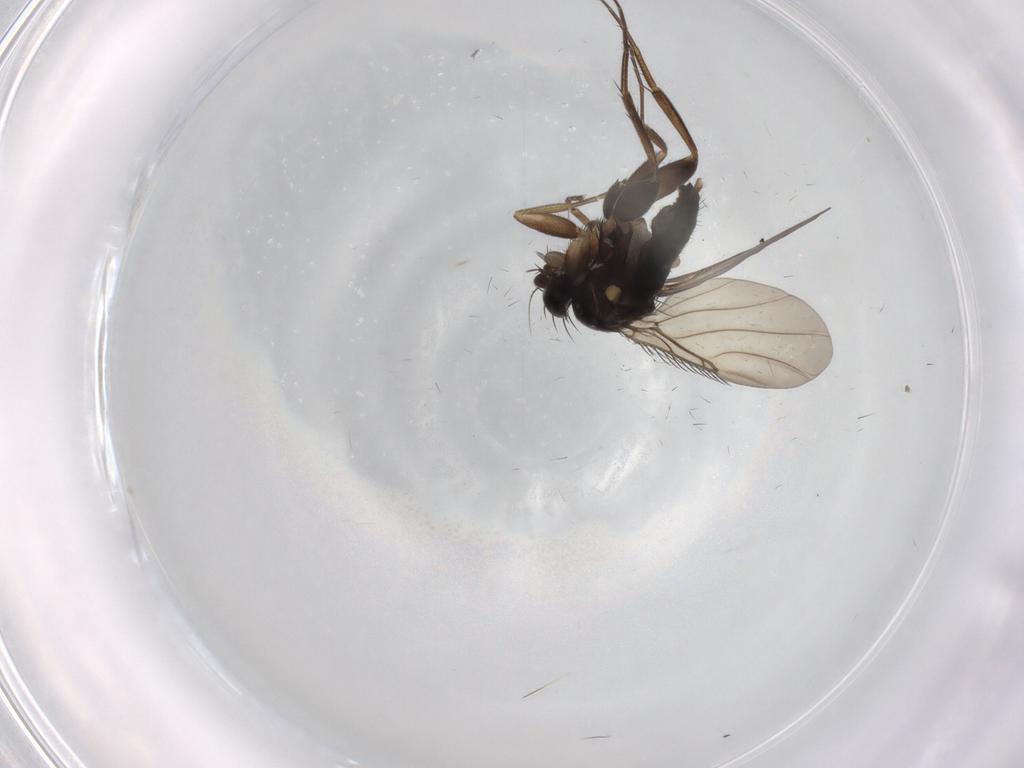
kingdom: Animalia
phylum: Arthropoda
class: Insecta
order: Diptera
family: Phoridae
